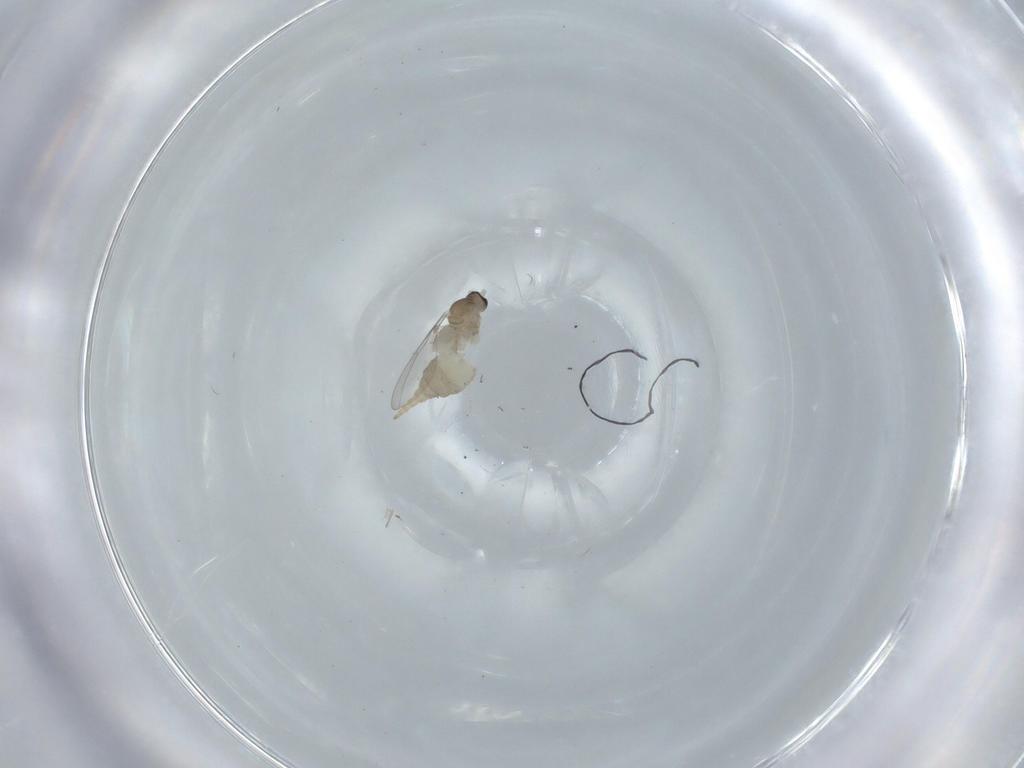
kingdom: Animalia
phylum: Arthropoda
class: Insecta
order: Diptera
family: Cecidomyiidae
